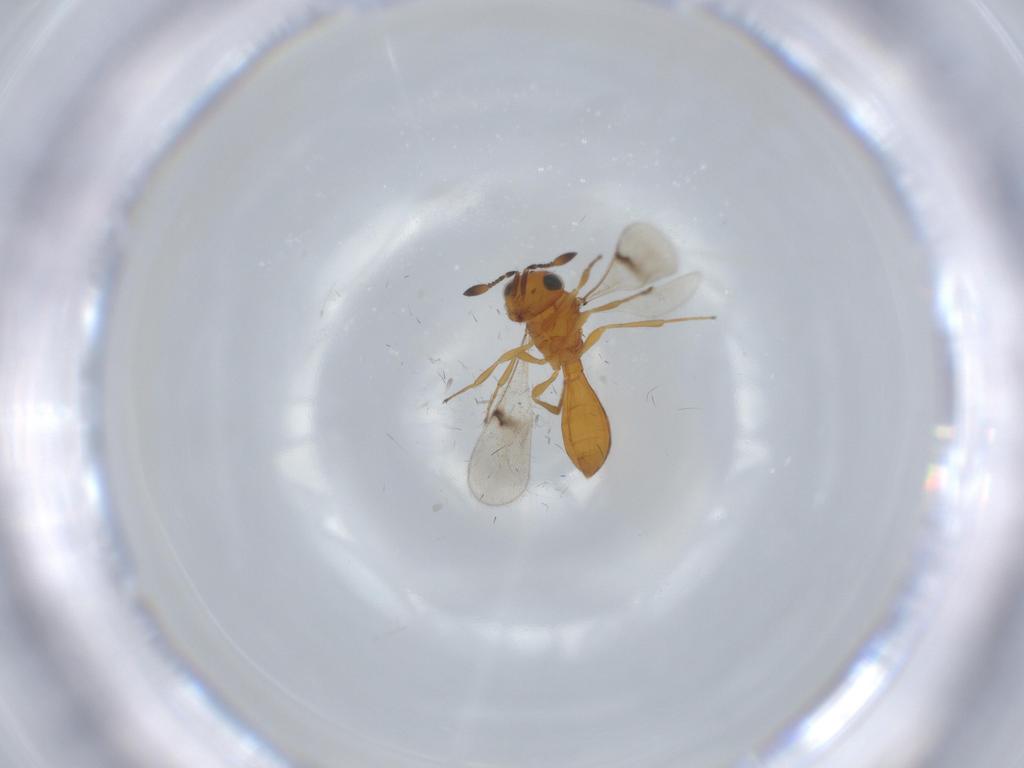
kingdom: Animalia
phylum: Arthropoda
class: Insecta
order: Hymenoptera
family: Scelionidae
